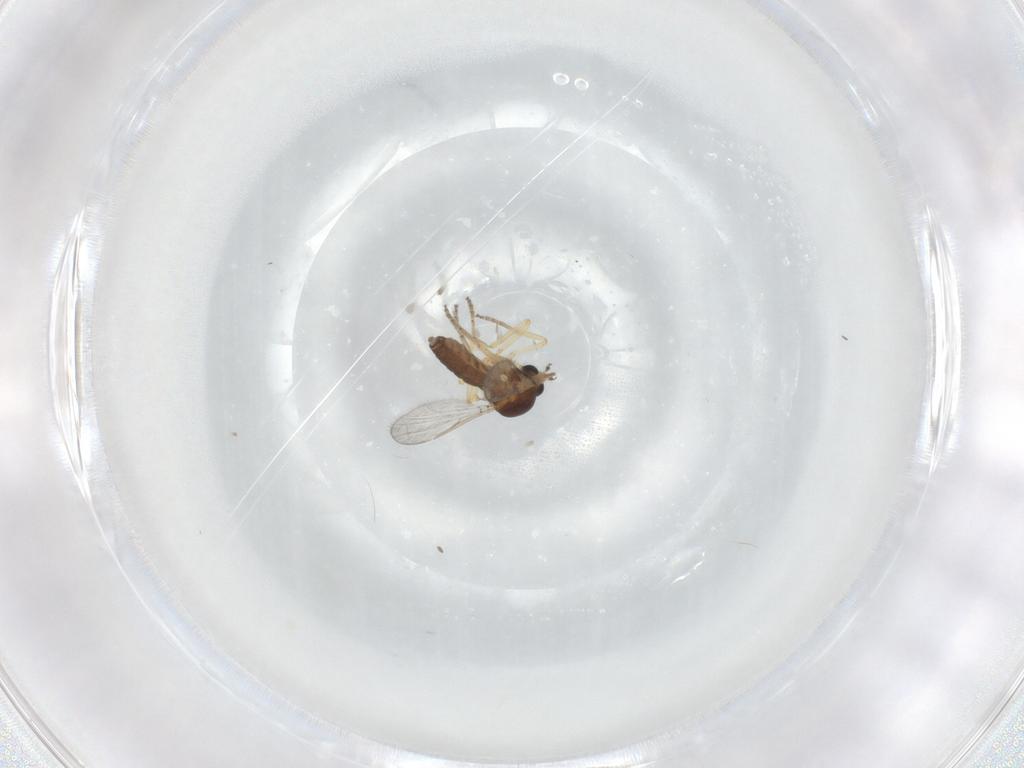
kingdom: Animalia
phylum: Arthropoda
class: Insecta
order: Diptera
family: Ceratopogonidae
